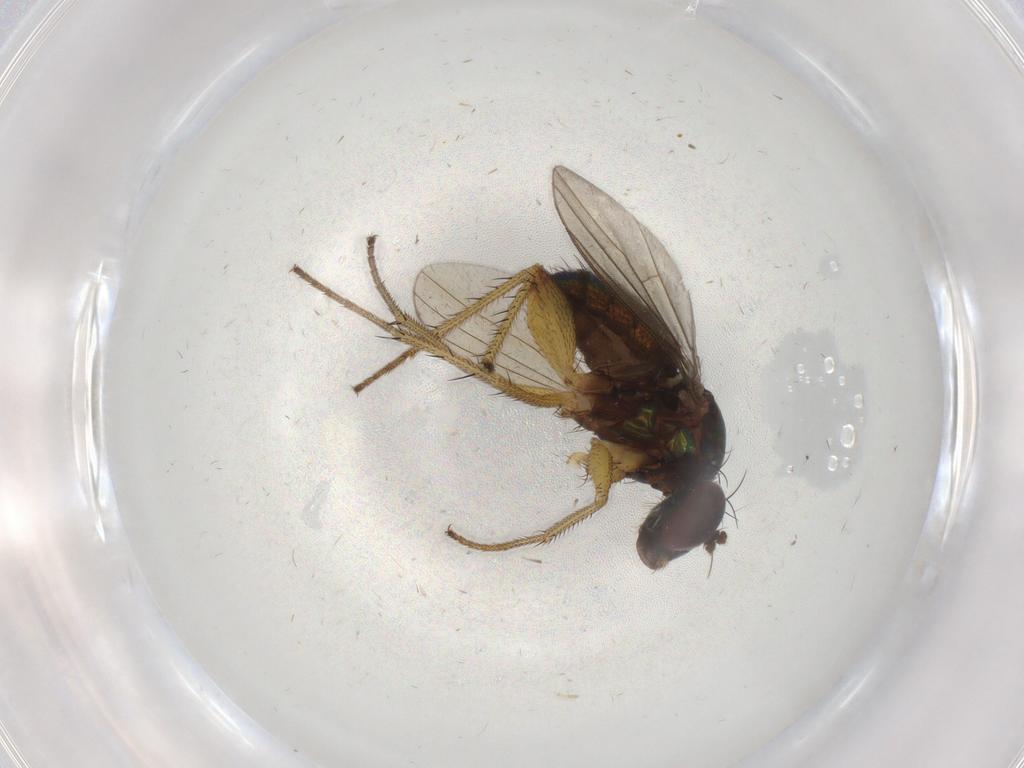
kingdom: Animalia
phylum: Arthropoda
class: Insecta
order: Diptera
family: Dolichopodidae
